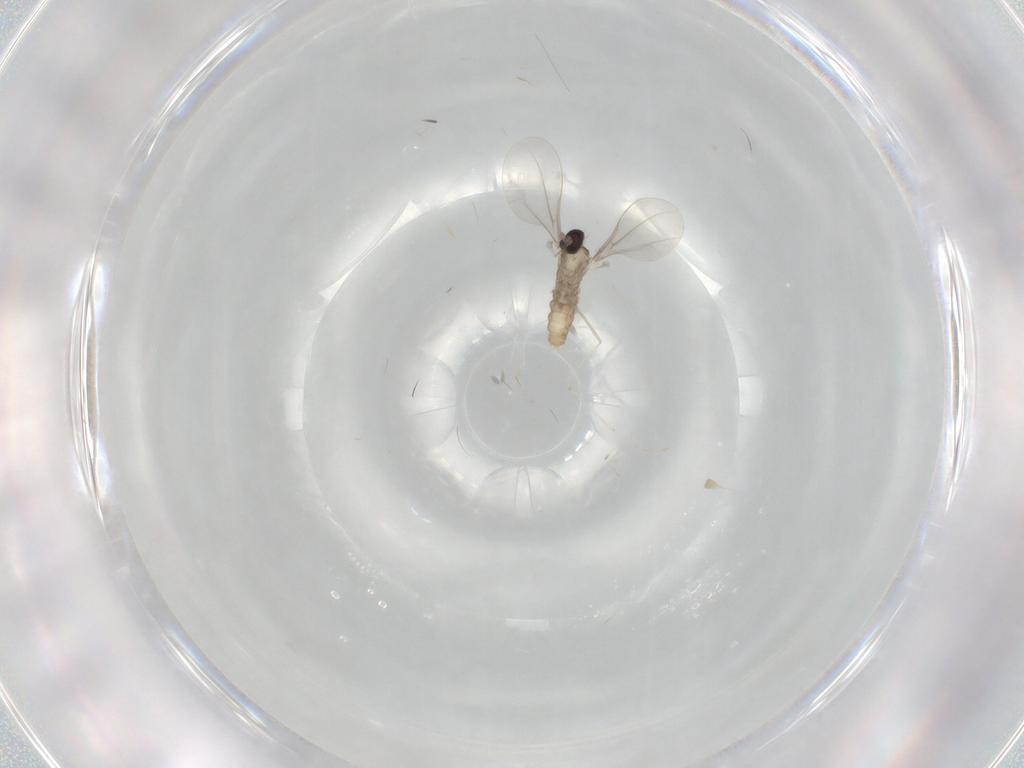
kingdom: Animalia
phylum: Arthropoda
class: Insecta
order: Diptera
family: Cecidomyiidae
